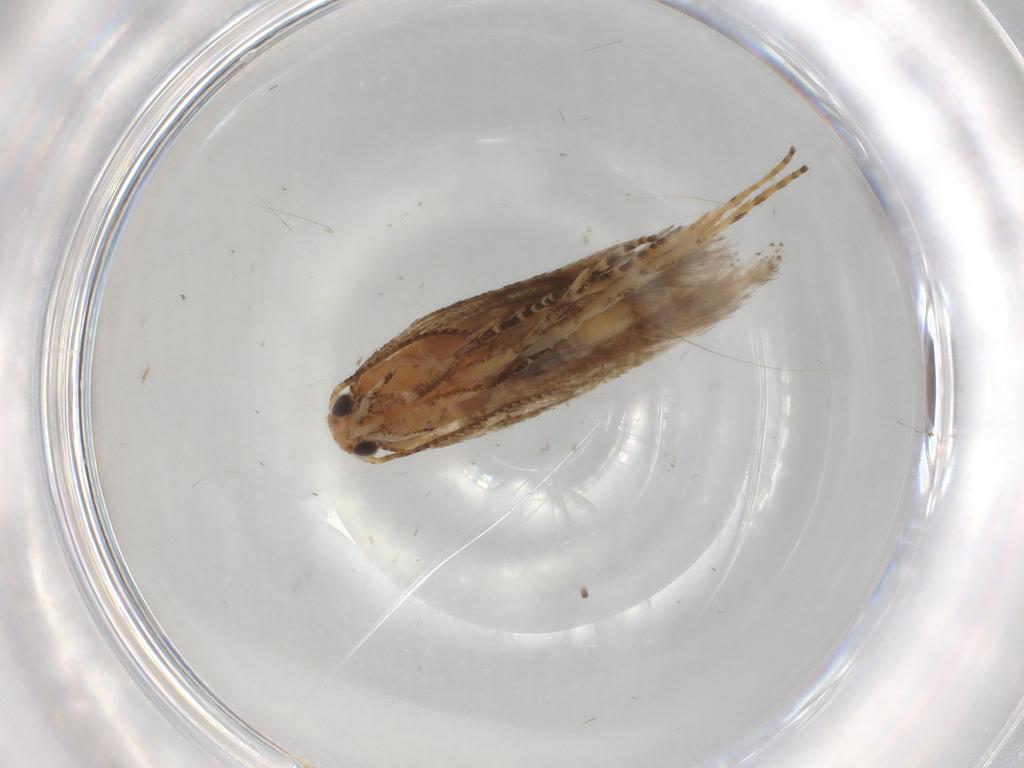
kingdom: Animalia
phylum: Arthropoda
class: Insecta
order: Lepidoptera
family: Gelechiidae
